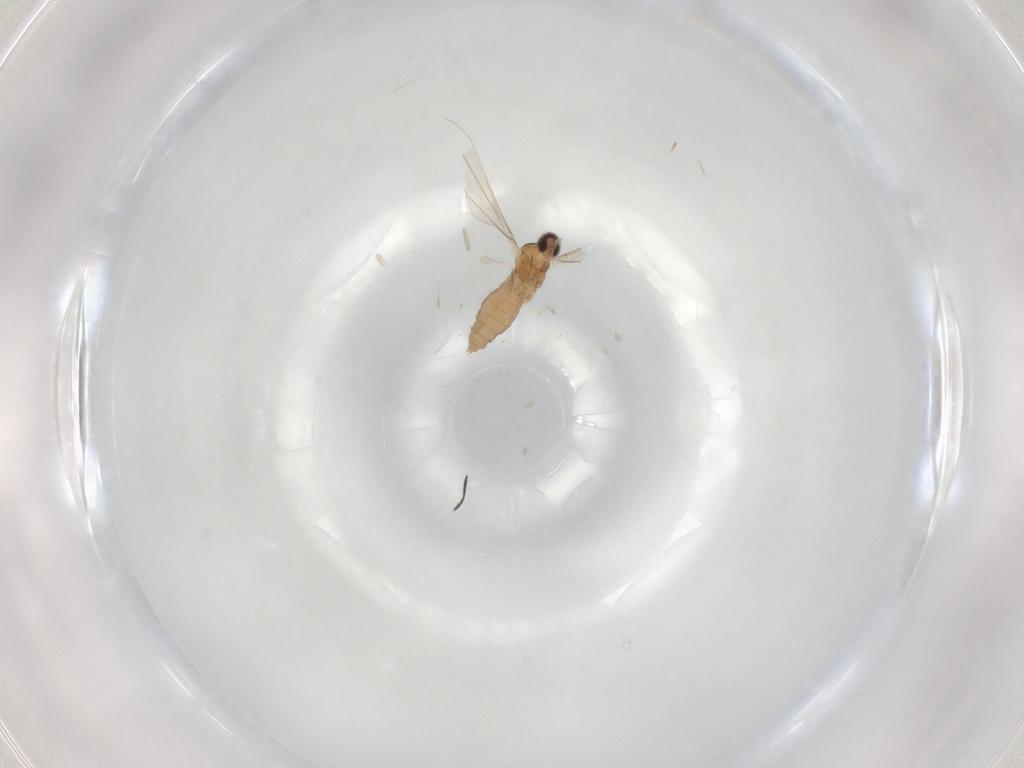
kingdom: Animalia
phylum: Arthropoda
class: Insecta
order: Diptera
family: Cecidomyiidae
